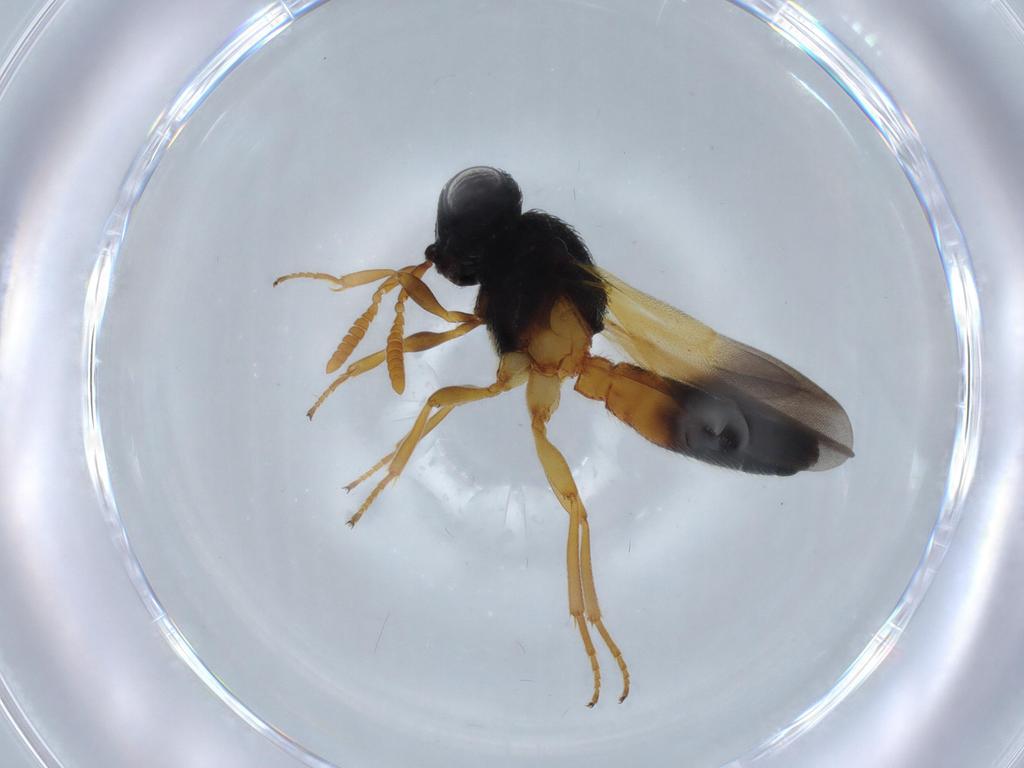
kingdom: Animalia
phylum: Arthropoda
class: Insecta
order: Hymenoptera
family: Scelionidae
